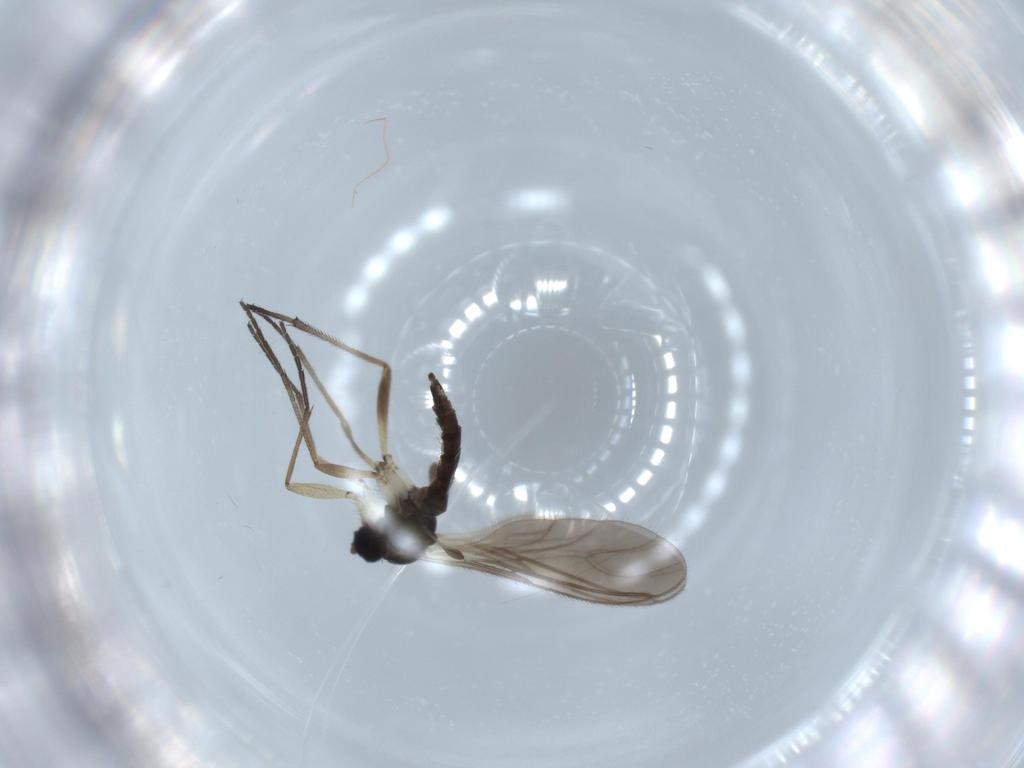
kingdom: Animalia
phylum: Arthropoda
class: Insecta
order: Diptera
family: Sciaridae
